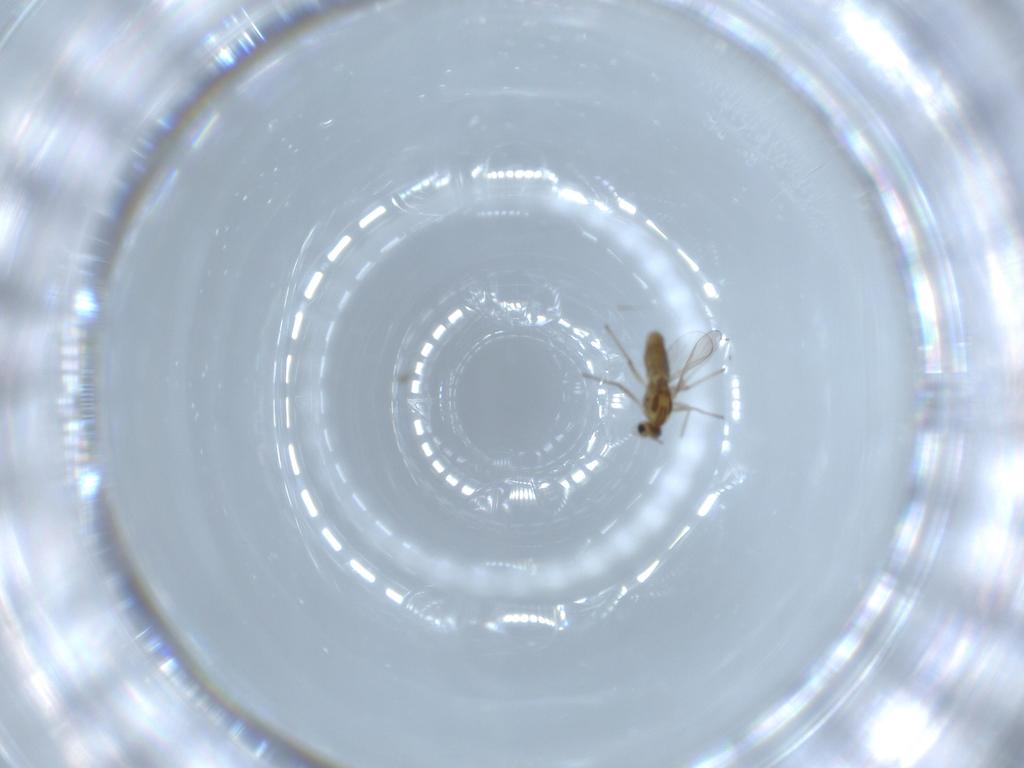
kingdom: Animalia
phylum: Arthropoda
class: Insecta
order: Diptera
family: Chironomidae
